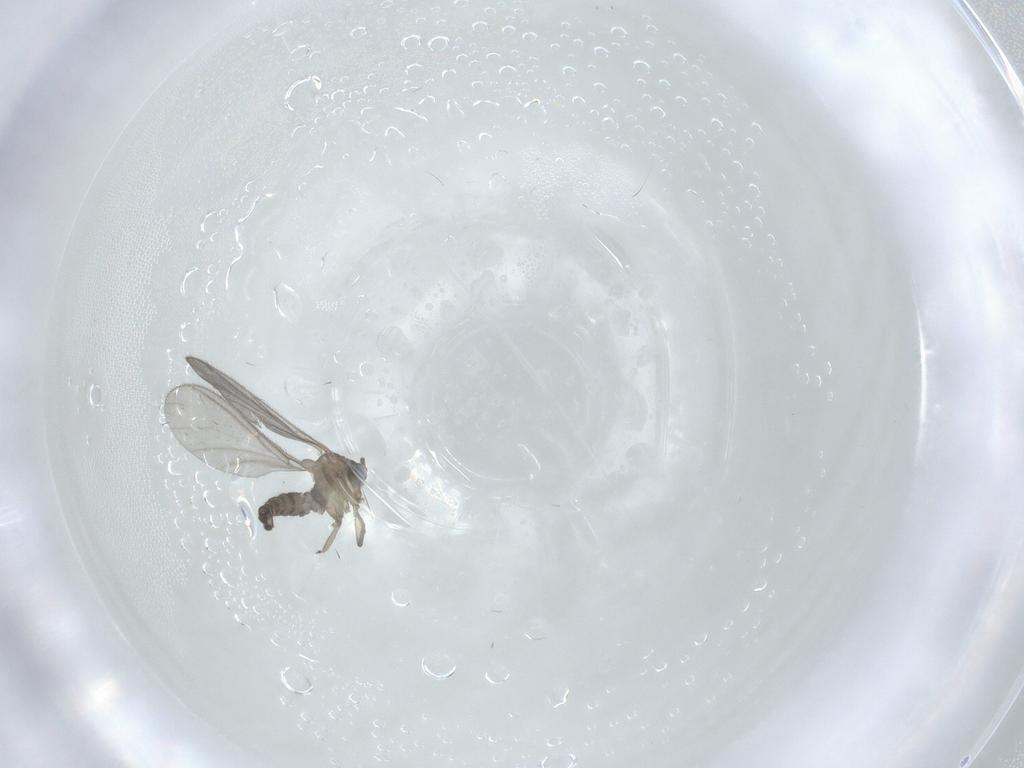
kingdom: Animalia
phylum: Arthropoda
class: Insecta
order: Diptera
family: Sciaridae
